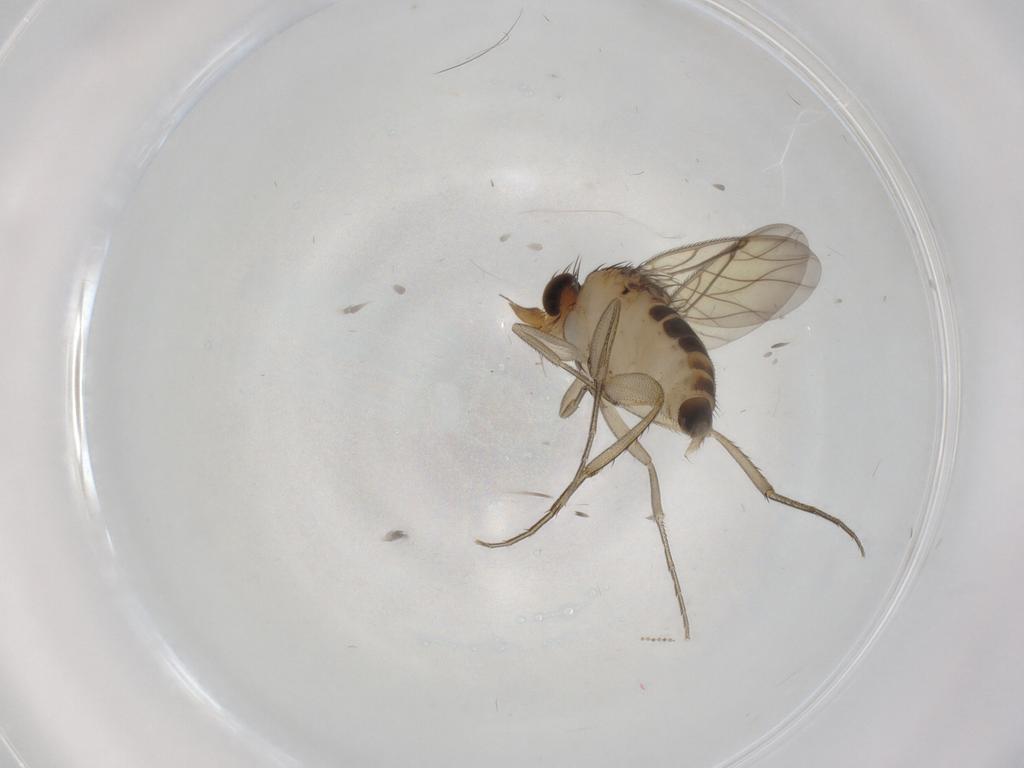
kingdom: Animalia
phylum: Arthropoda
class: Insecta
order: Diptera
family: Phoridae
